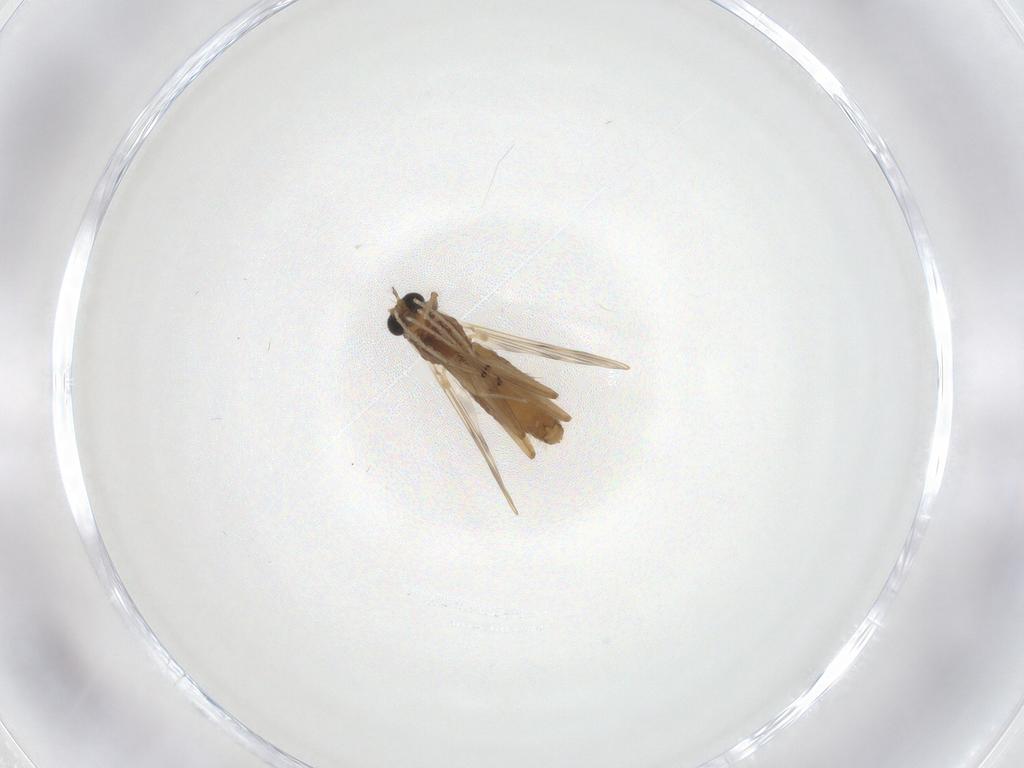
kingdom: Animalia
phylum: Arthropoda
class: Insecta
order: Diptera
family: Chironomidae
